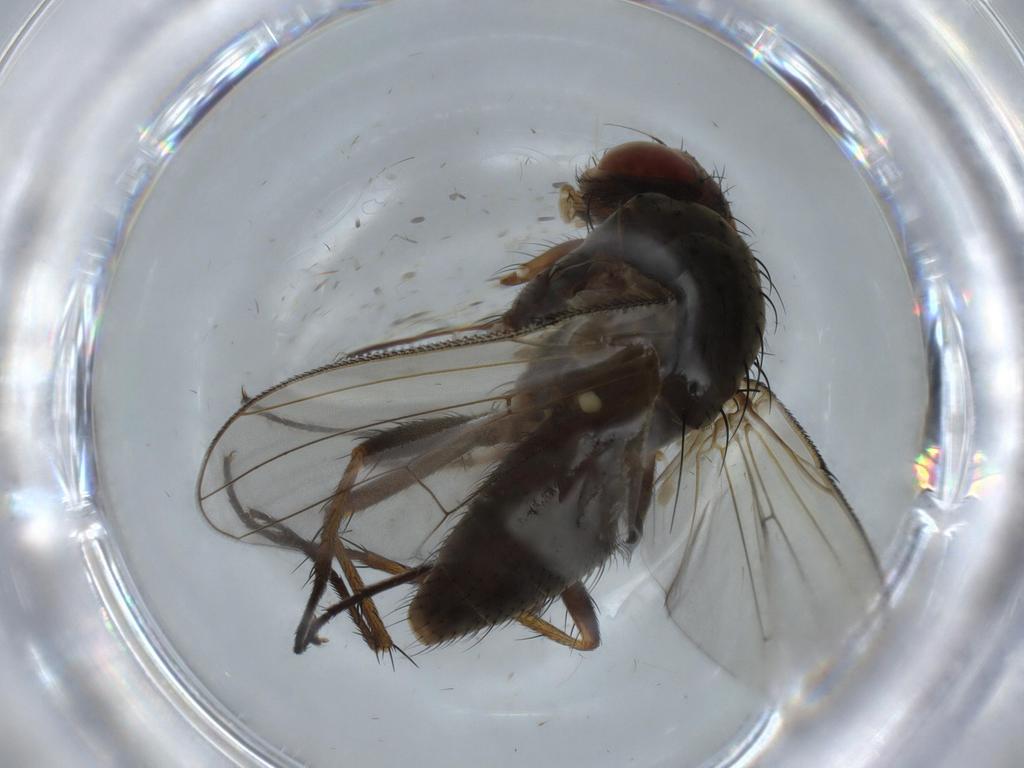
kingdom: Animalia
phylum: Arthropoda
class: Insecta
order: Diptera
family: Anthomyiidae
